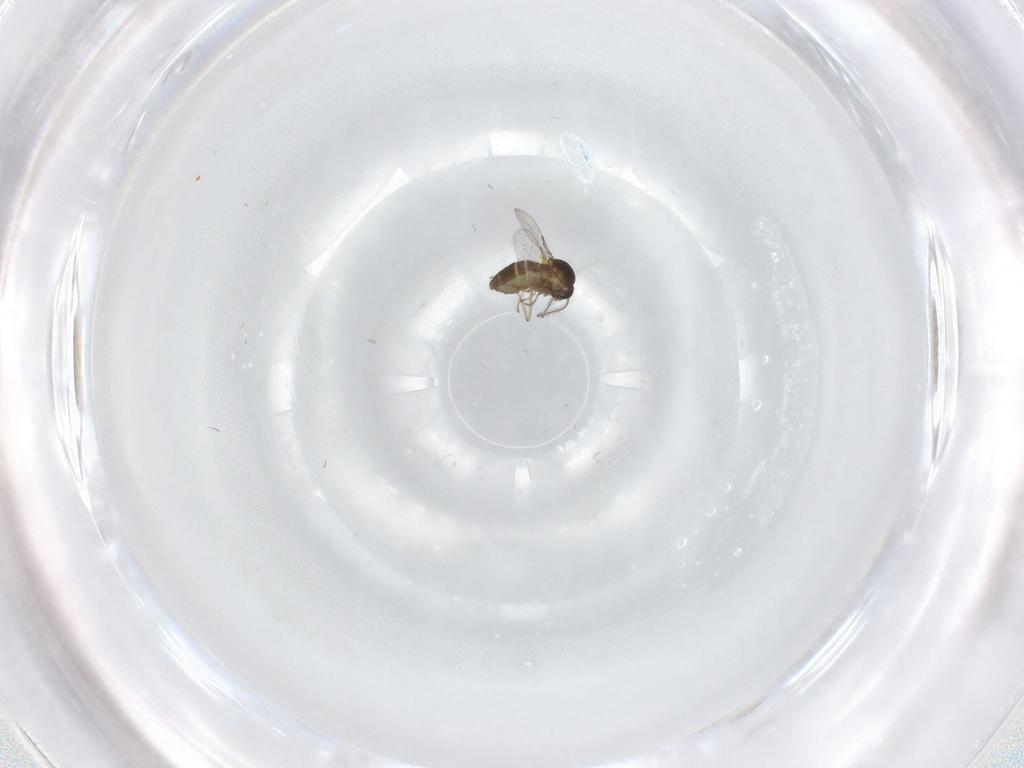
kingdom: Animalia
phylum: Arthropoda
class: Insecta
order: Diptera
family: Ceratopogonidae
